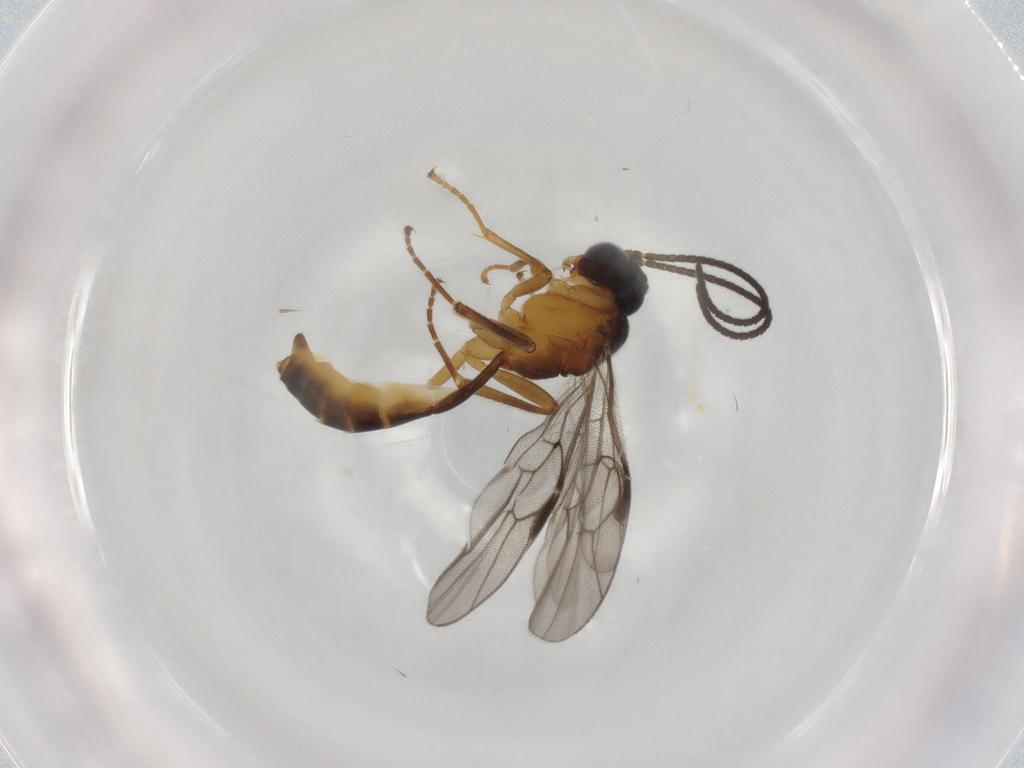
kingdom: Animalia
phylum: Arthropoda
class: Insecta
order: Hymenoptera
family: Ichneumonidae
